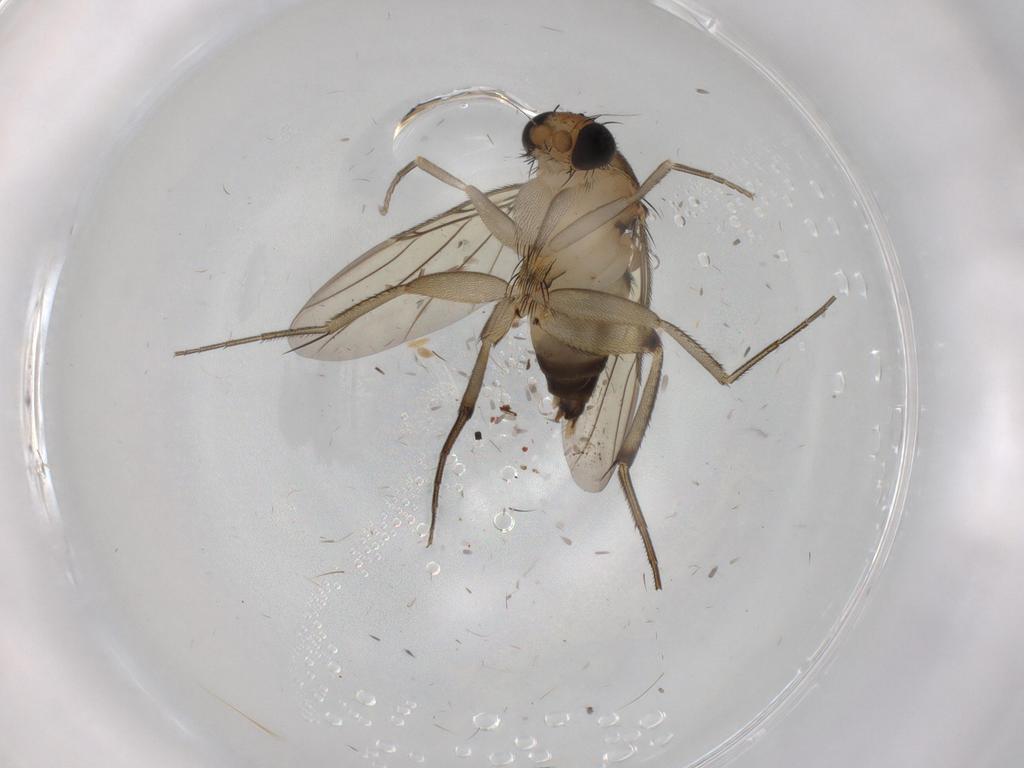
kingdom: Animalia
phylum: Arthropoda
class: Insecta
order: Diptera
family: Phoridae
